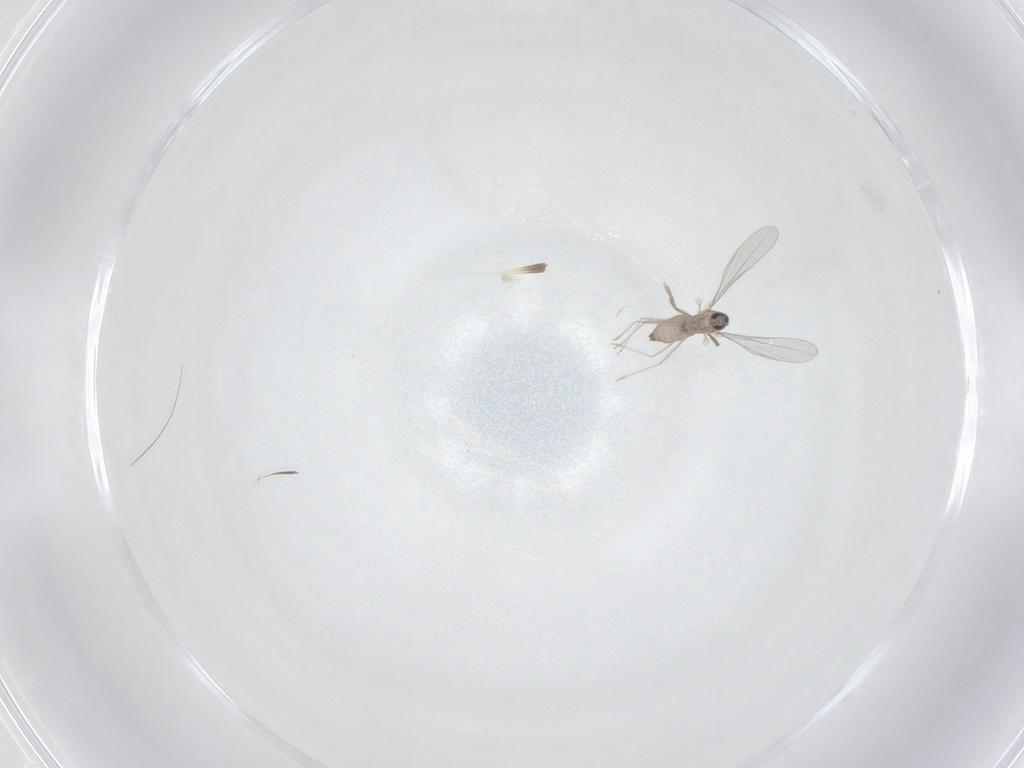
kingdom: Animalia
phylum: Arthropoda
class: Insecta
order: Diptera
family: Cecidomyiidae
